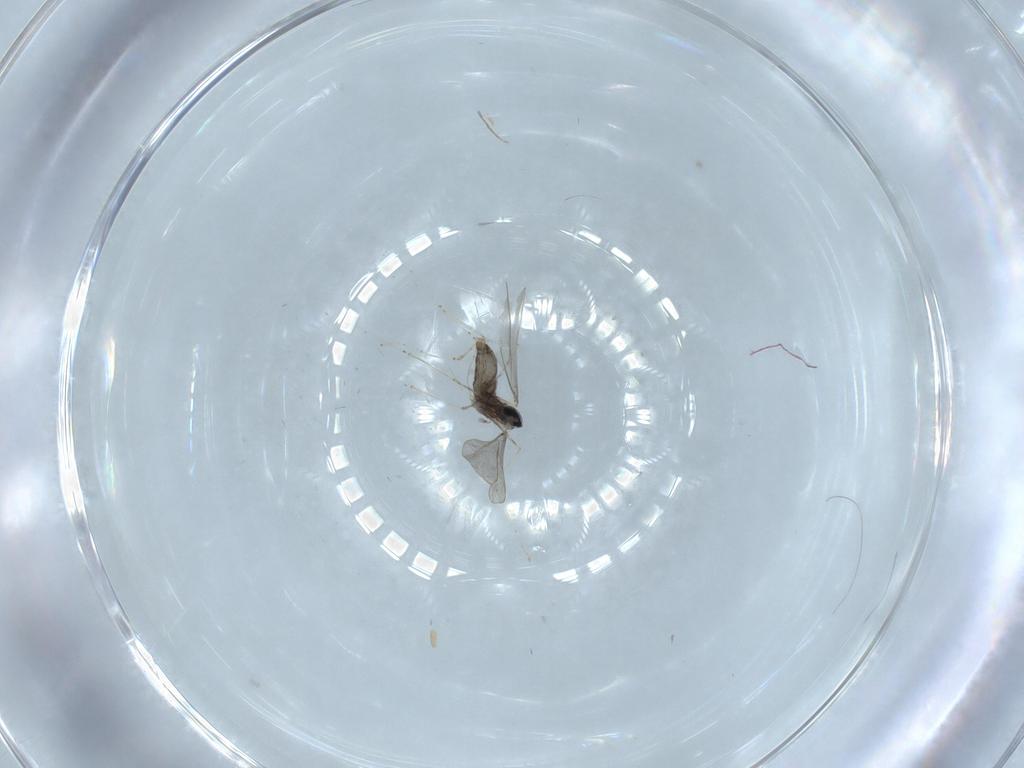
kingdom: Animalia
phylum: Arthropoda
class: Insecta
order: Diptera
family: Cecidomyiidae
